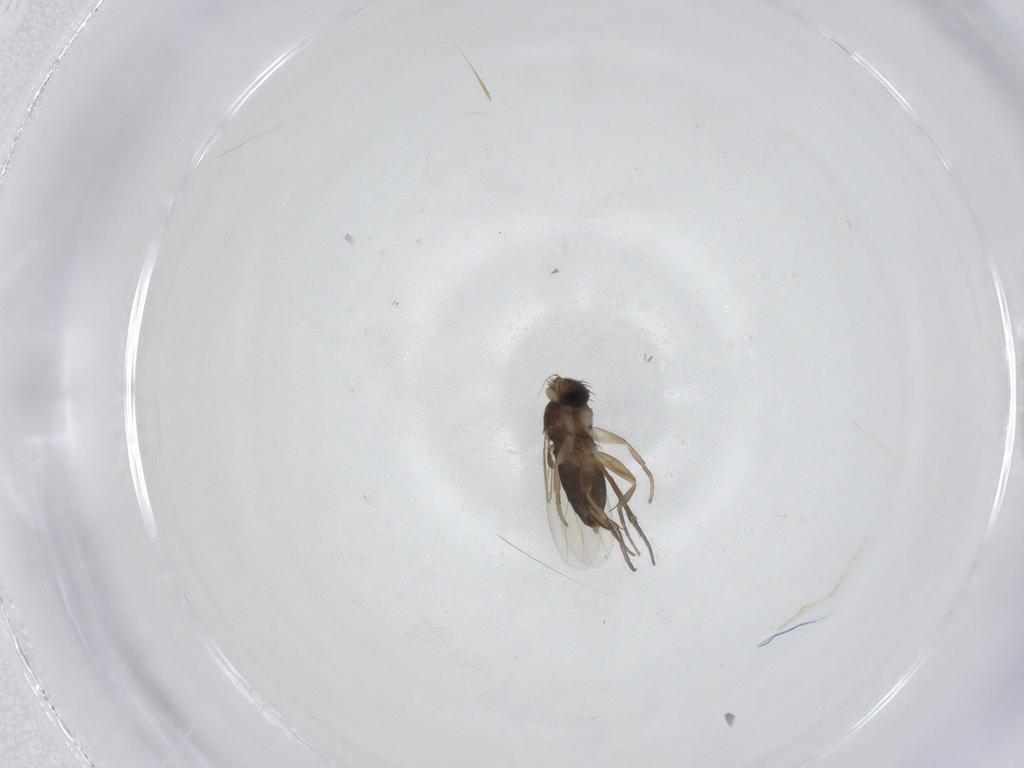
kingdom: Animalia
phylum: Arthropoda
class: Insecta
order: Diptera
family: Phoridae
